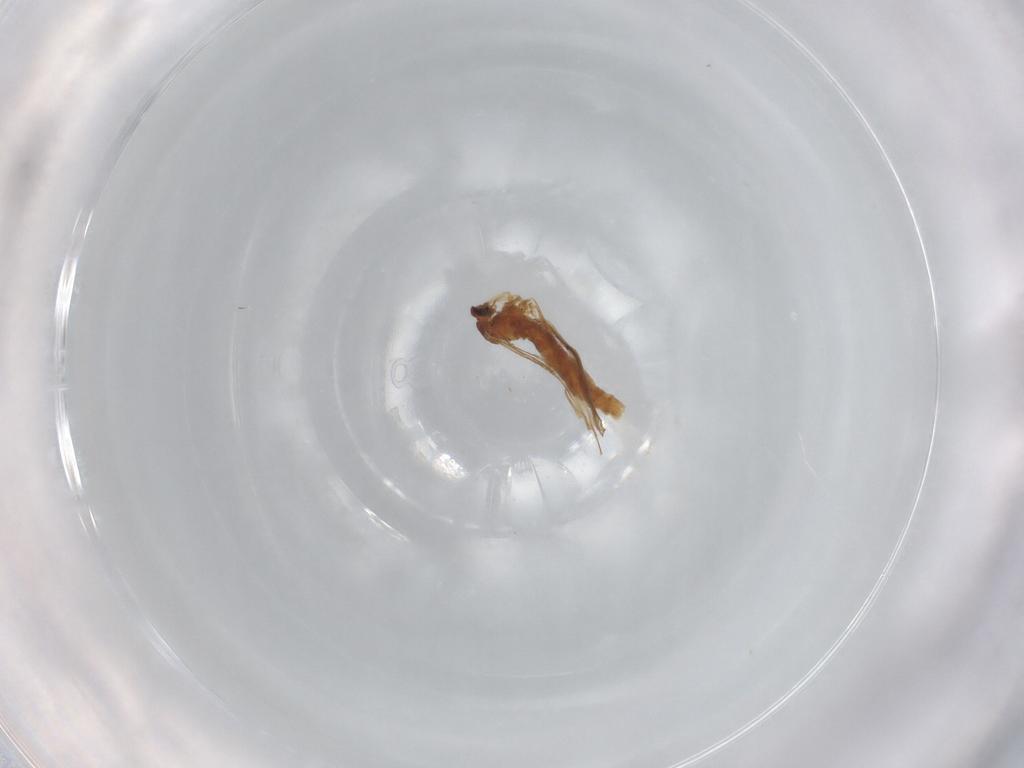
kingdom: Animalia
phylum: Arthropoda
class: Insecta
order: Diptera
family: Cecidomyiidae
